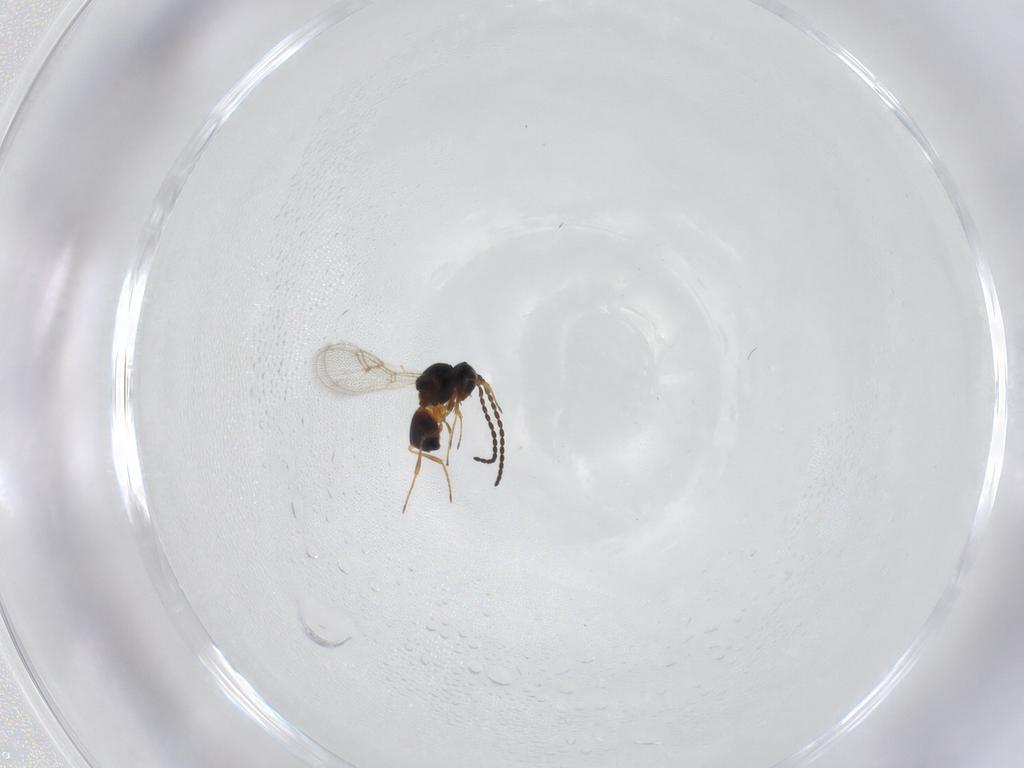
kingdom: Animalia
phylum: Arthropoda
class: Insecta
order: Hymenoptera
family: Figitidae
